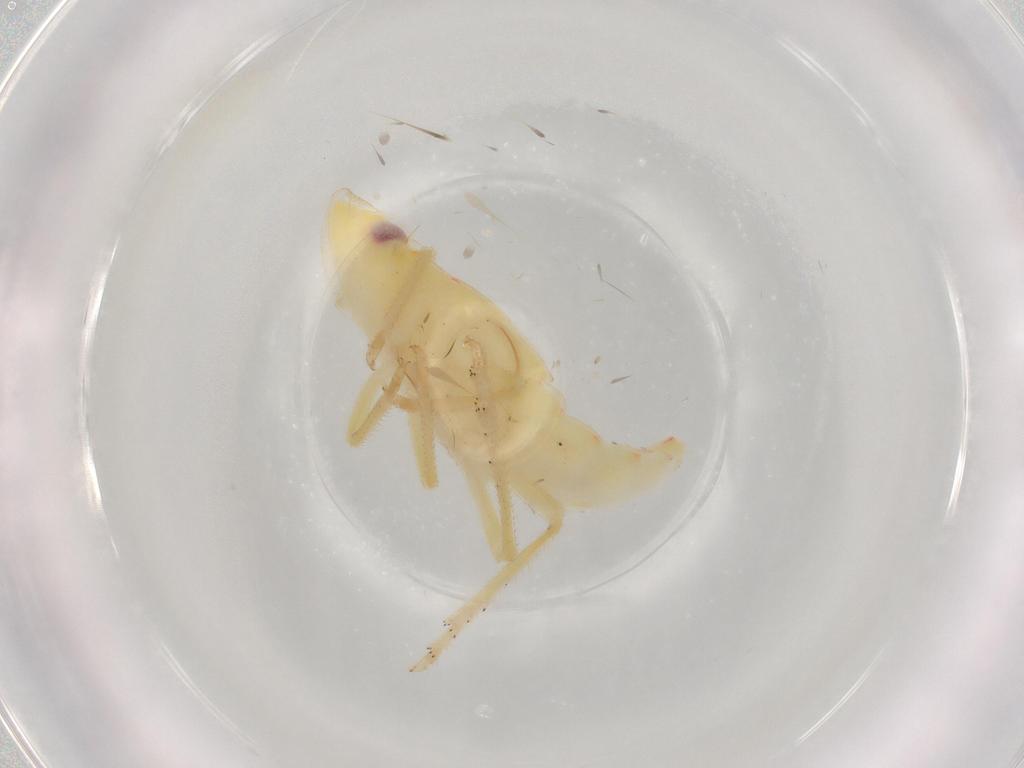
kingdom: Animalia
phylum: Arthropoda
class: Insecta
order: Hemiptera
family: Tropiduchidae
